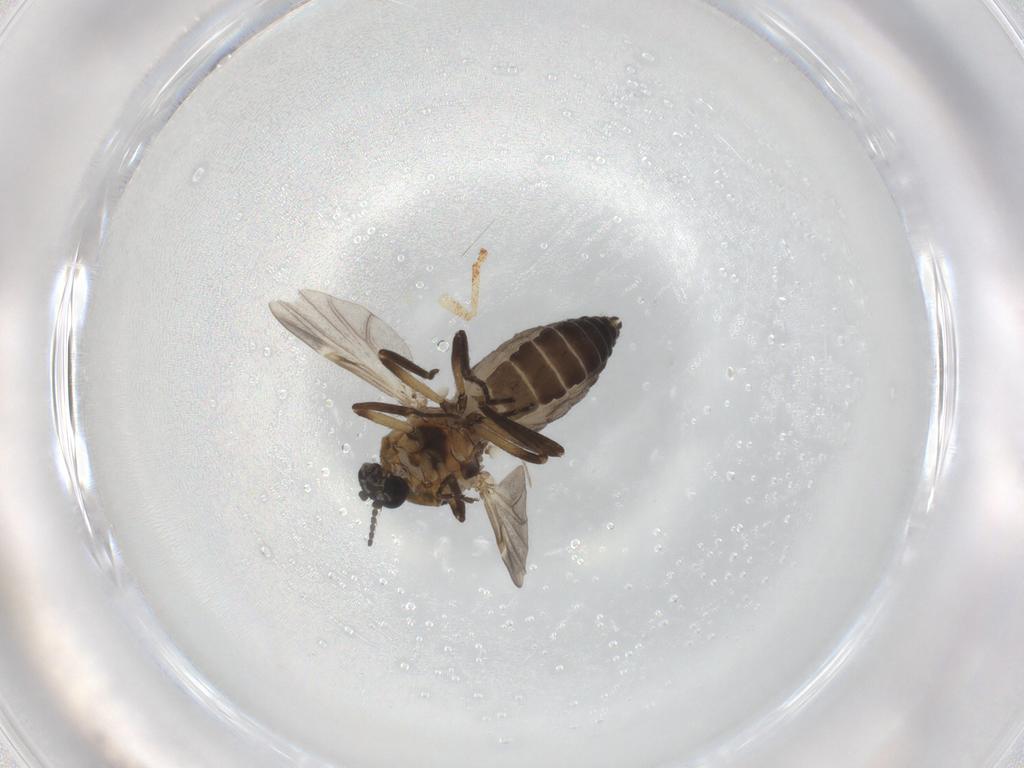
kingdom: Animalia
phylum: Arthropoda
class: Insecta
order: Diptera
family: Ceratopogonidae
